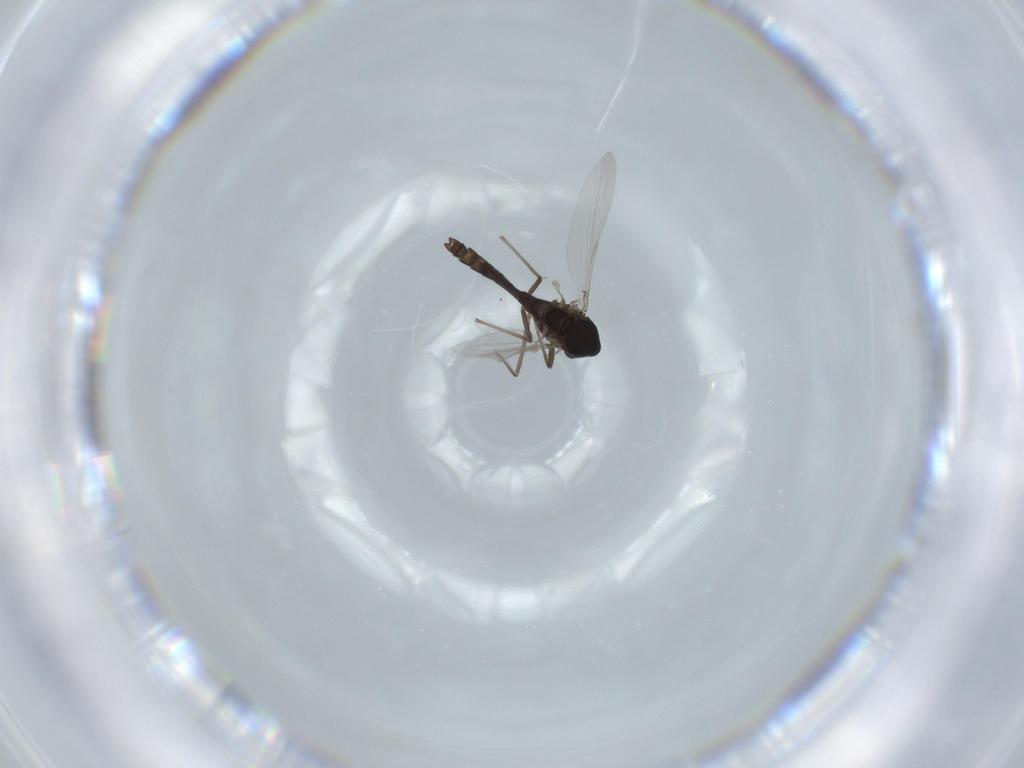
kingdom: Animalia
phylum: Arthropoda
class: Insecta
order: Diptera
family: Chironomidae
